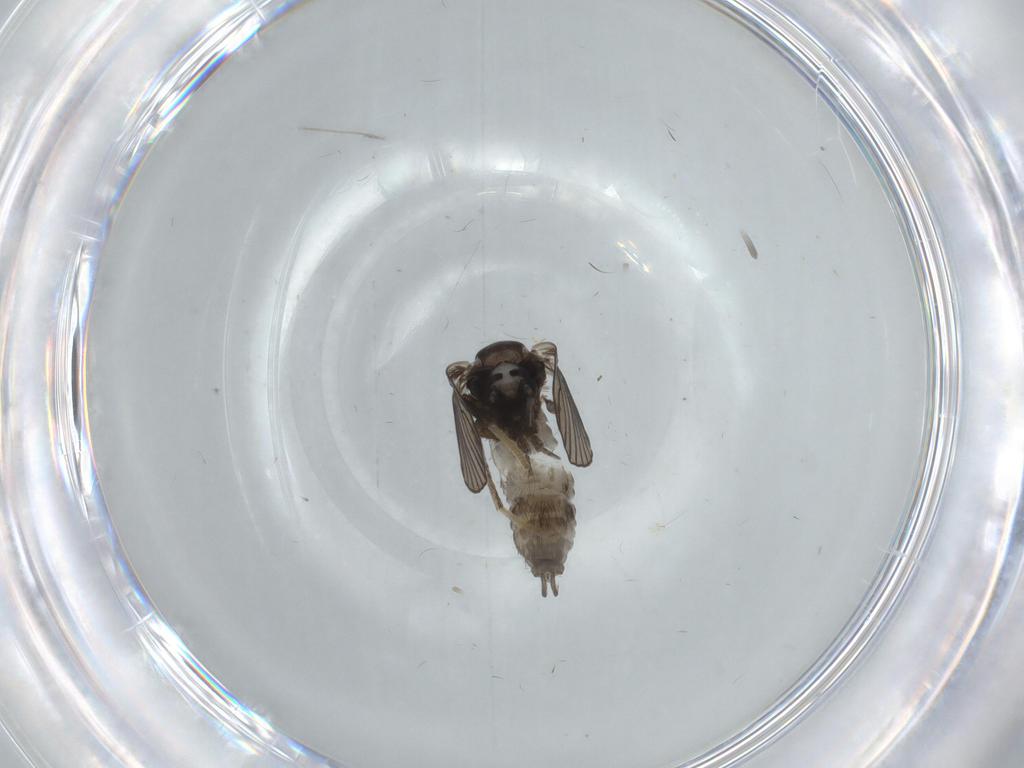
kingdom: Animalia
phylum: Arthropoda
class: Insecta
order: Diptera
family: Psychodidae
